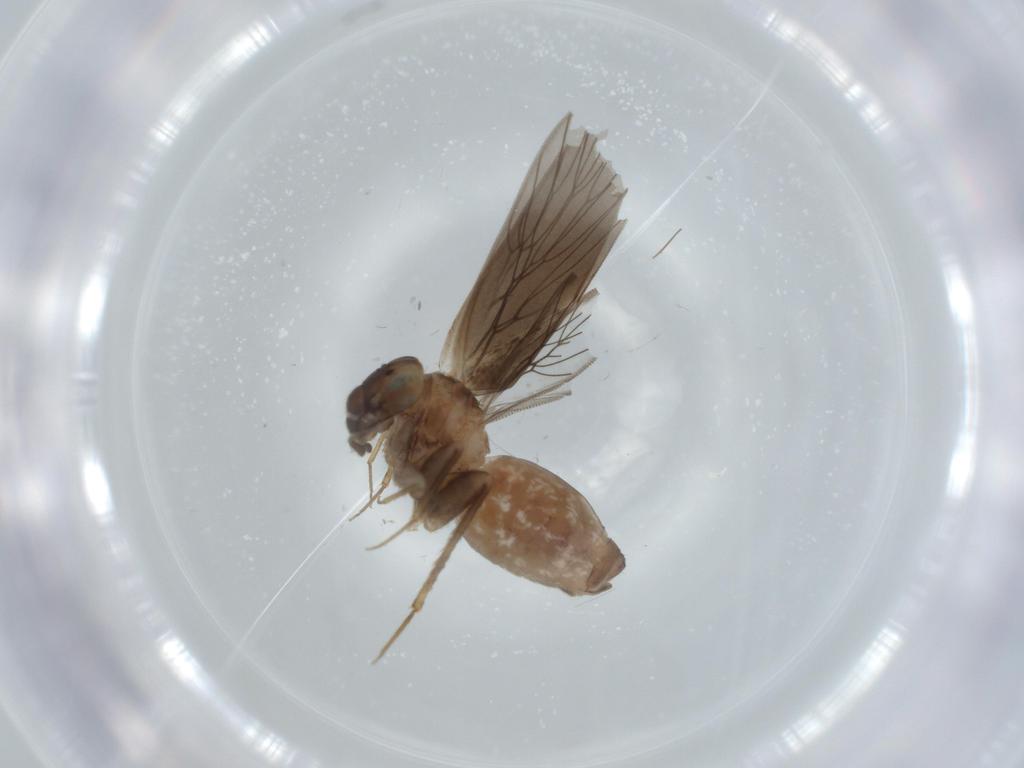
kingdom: Animalia
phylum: Arthropoda
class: Insecta
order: Psocodea
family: Lepidopsocidae
